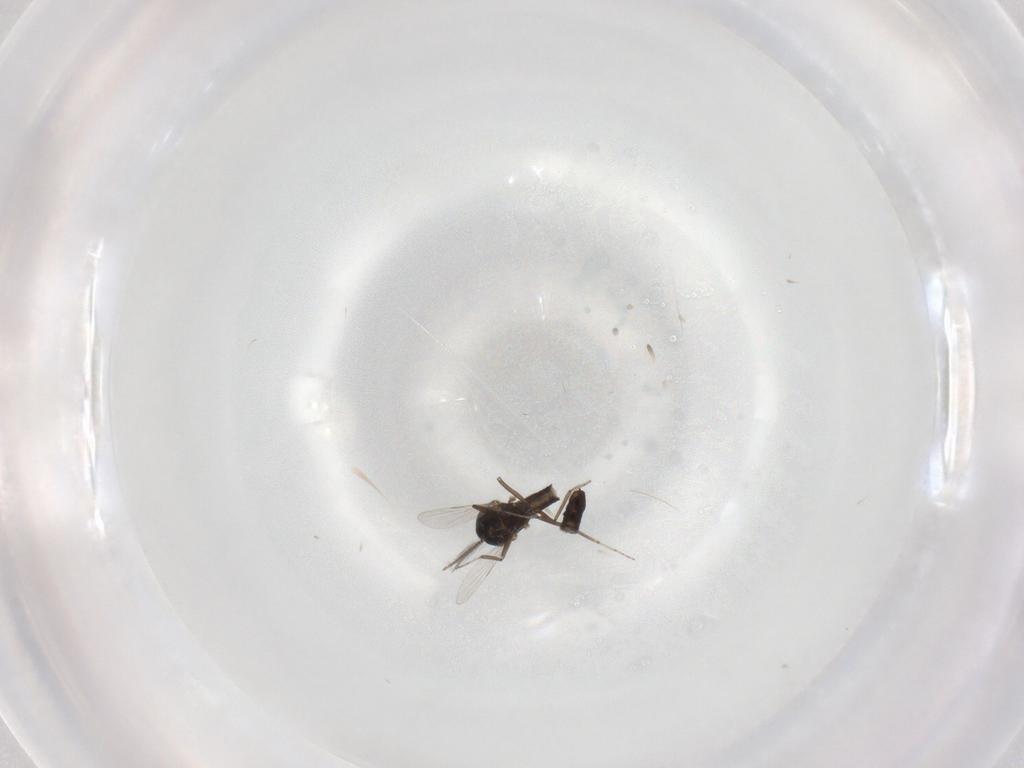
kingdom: Animalia
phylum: Arthropoda
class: Insecta
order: Diptera
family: Ceratopogonidae
